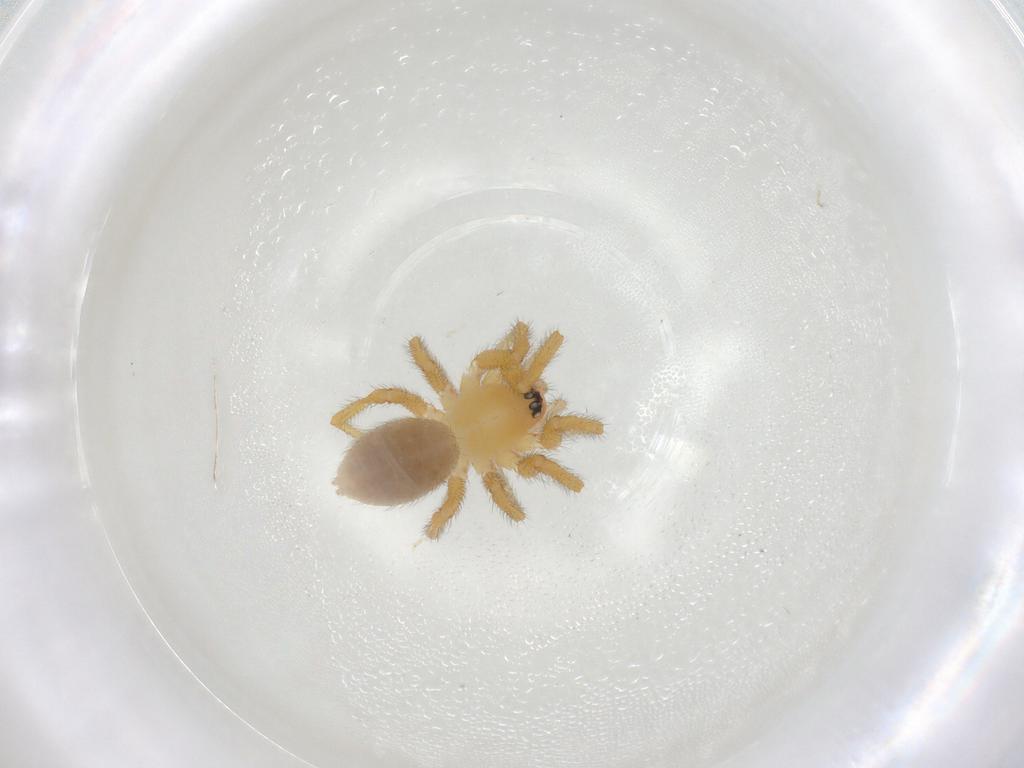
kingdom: Animalia
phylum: Arthropoda
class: Arachnida
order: Araneae
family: Linyphiidae
